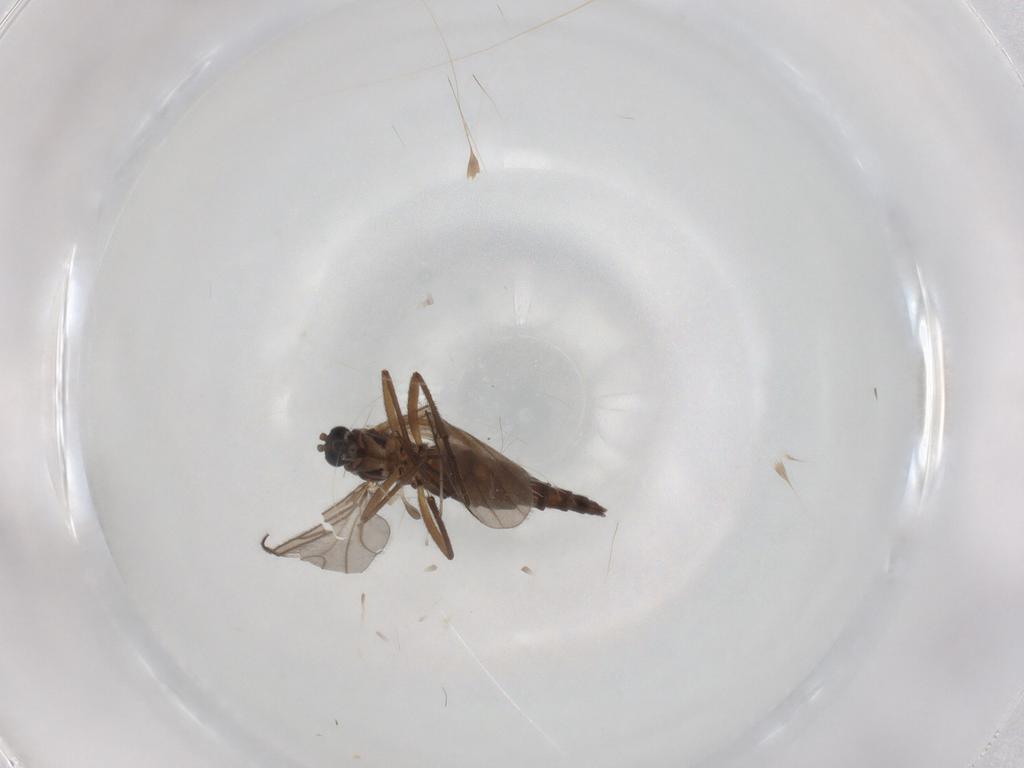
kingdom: Animalia
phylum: Arthropoda
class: Insecta
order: Diptera
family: Sciaridae
